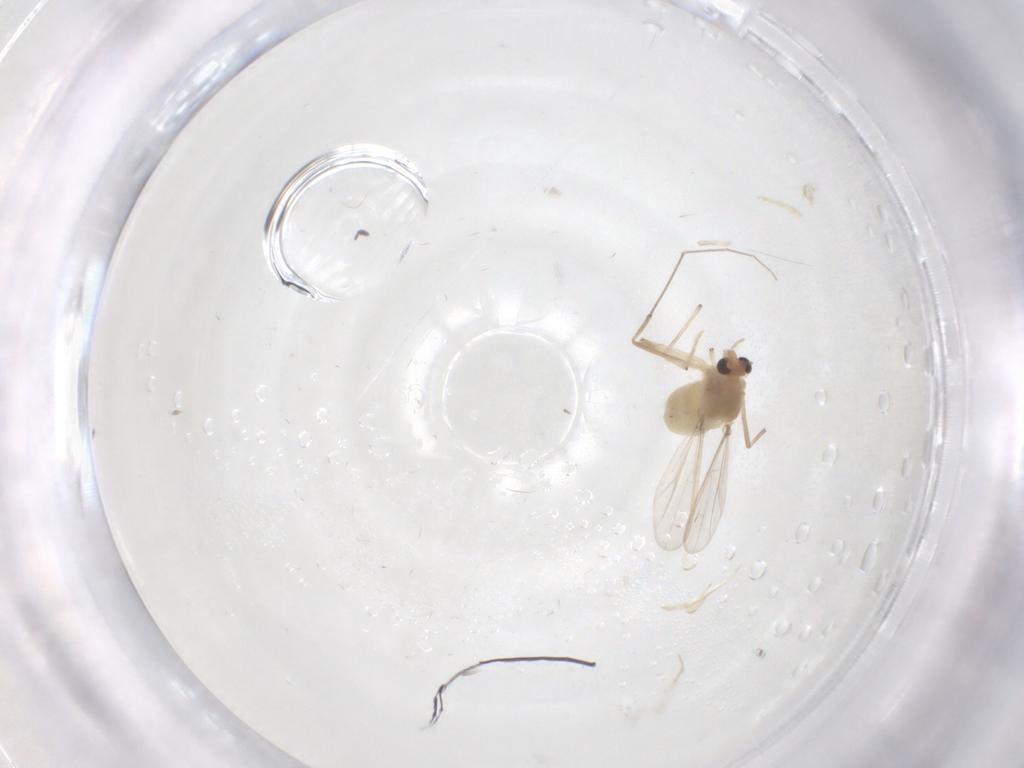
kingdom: Animalia
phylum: Arthropoda
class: Insecta
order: Diptera
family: Chironomidae
